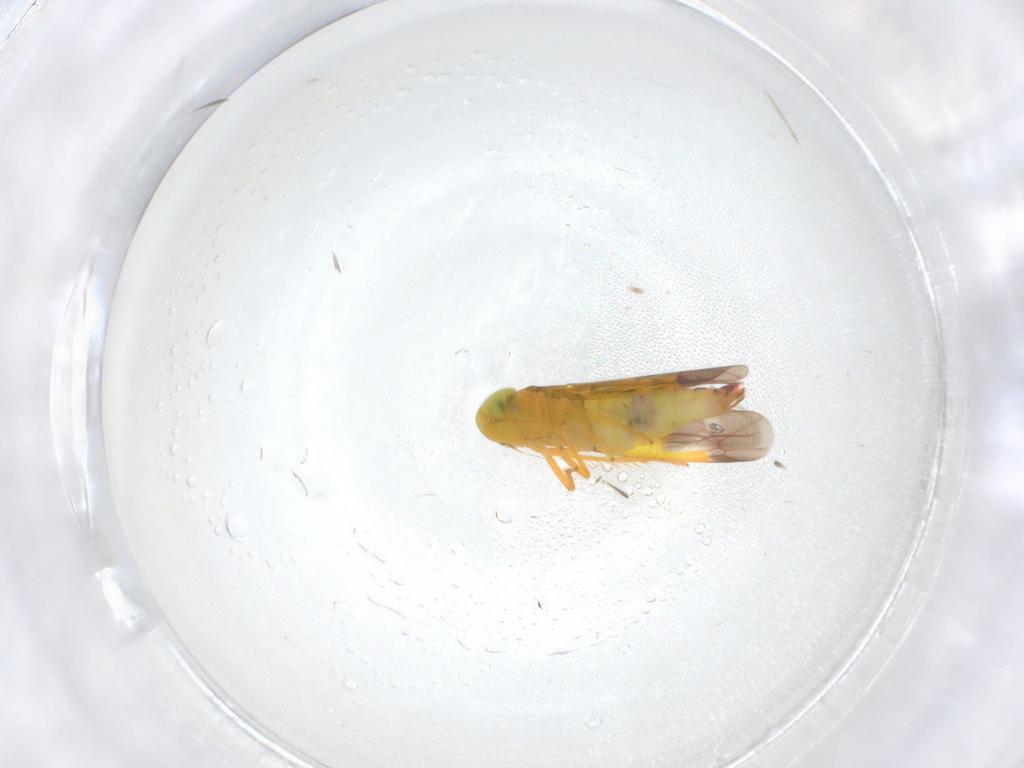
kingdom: Animalia
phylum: Arthropoda
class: Insecta
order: Hemiptera
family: Cicadellidae
